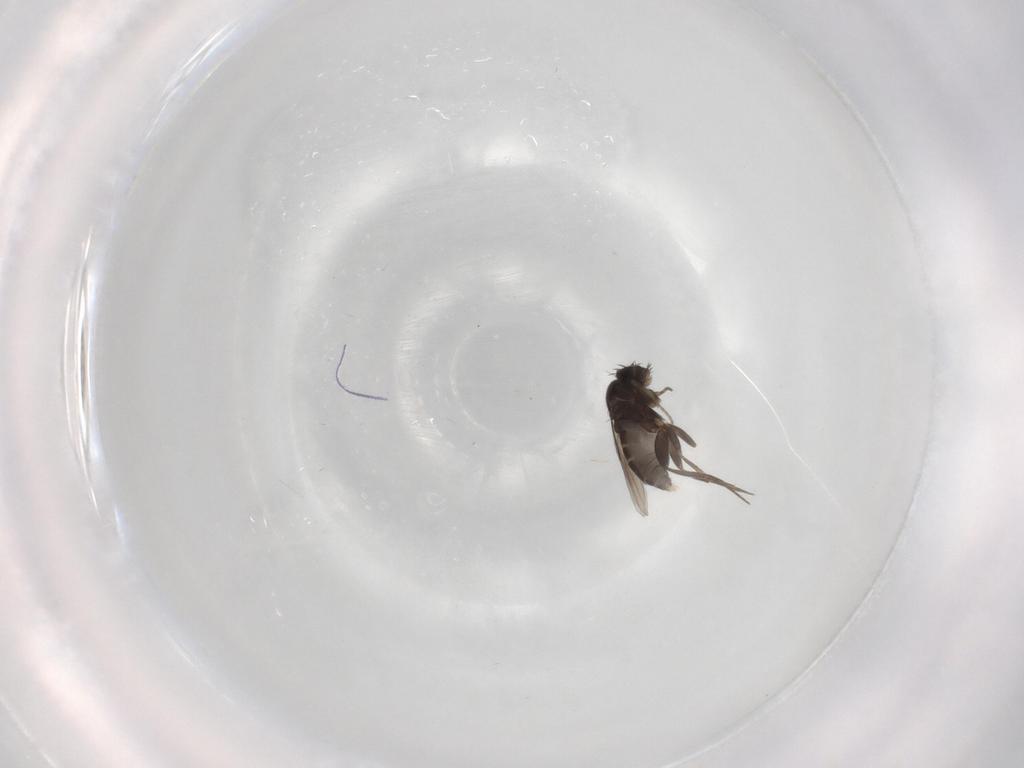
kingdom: Animalia
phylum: Arthropoda
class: Insecta
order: Diptera
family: Phoridae
